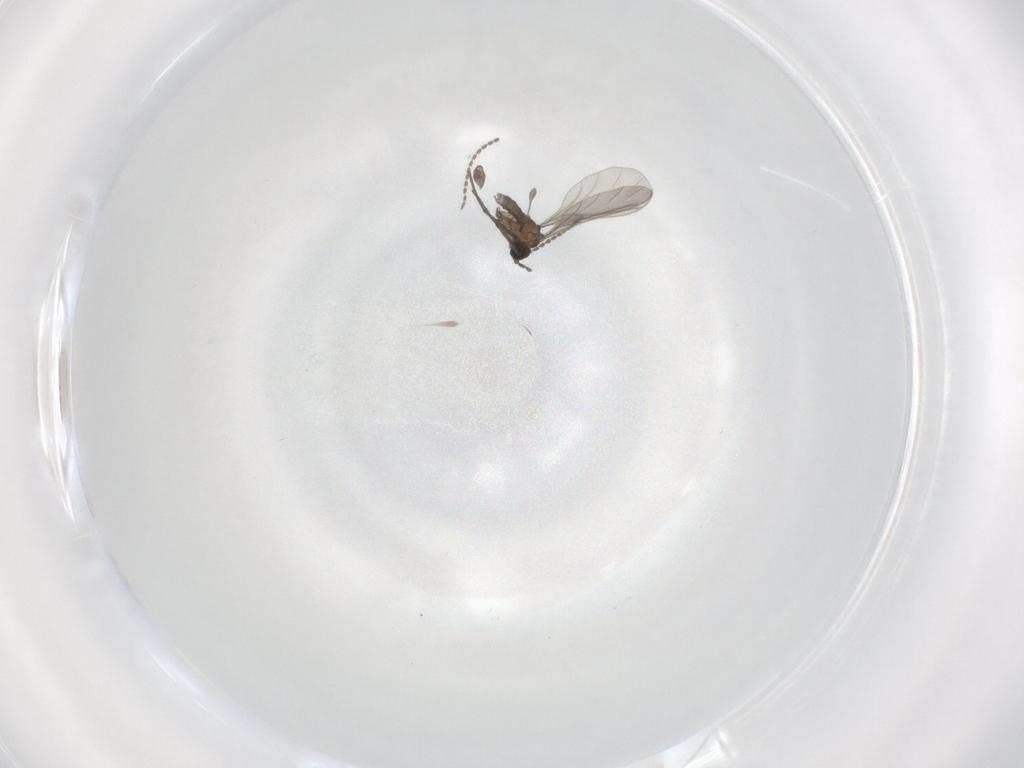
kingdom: Animalia
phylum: Arthropoda
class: Insecta
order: Diptera
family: Sciaridae
